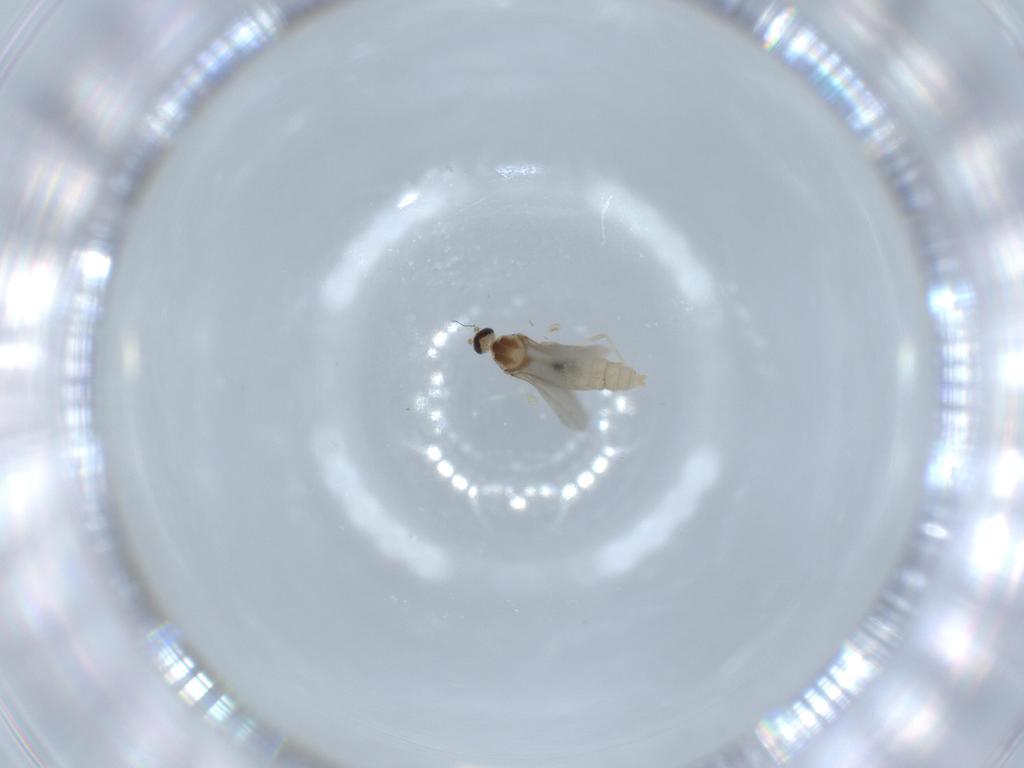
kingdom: Animalia
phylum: Arthropoda
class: Insecta
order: Diptera
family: Cecidomyiidae
